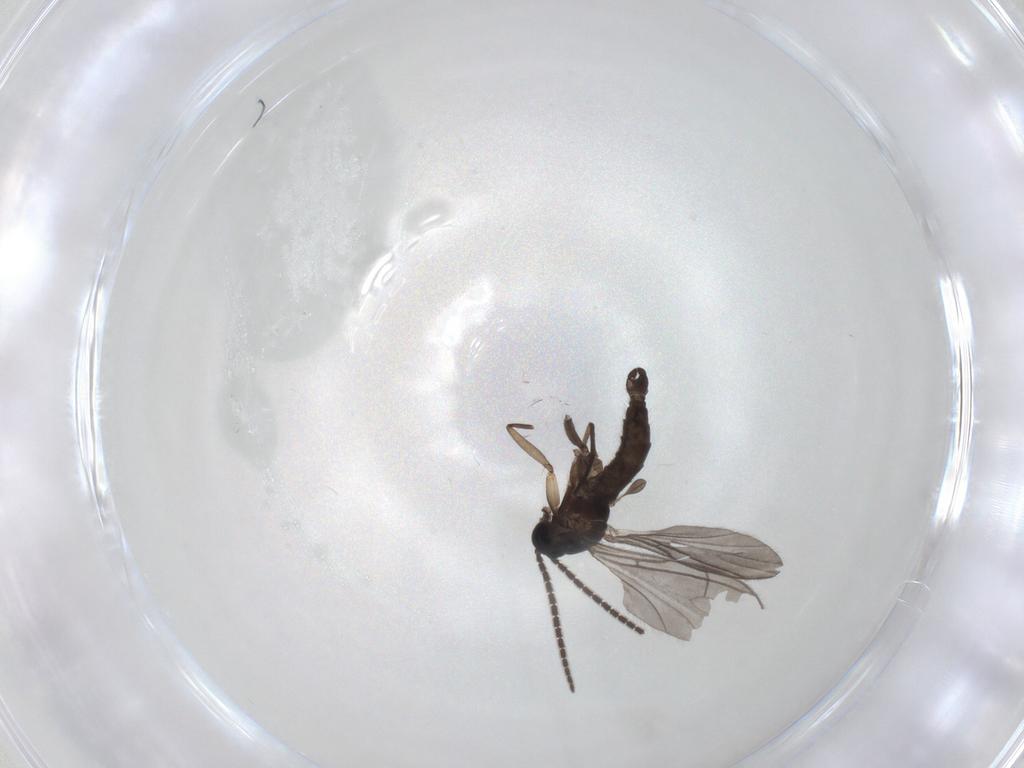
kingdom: Animalia
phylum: Arthropoda
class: Insecta
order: Diptera
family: Sciaridae
